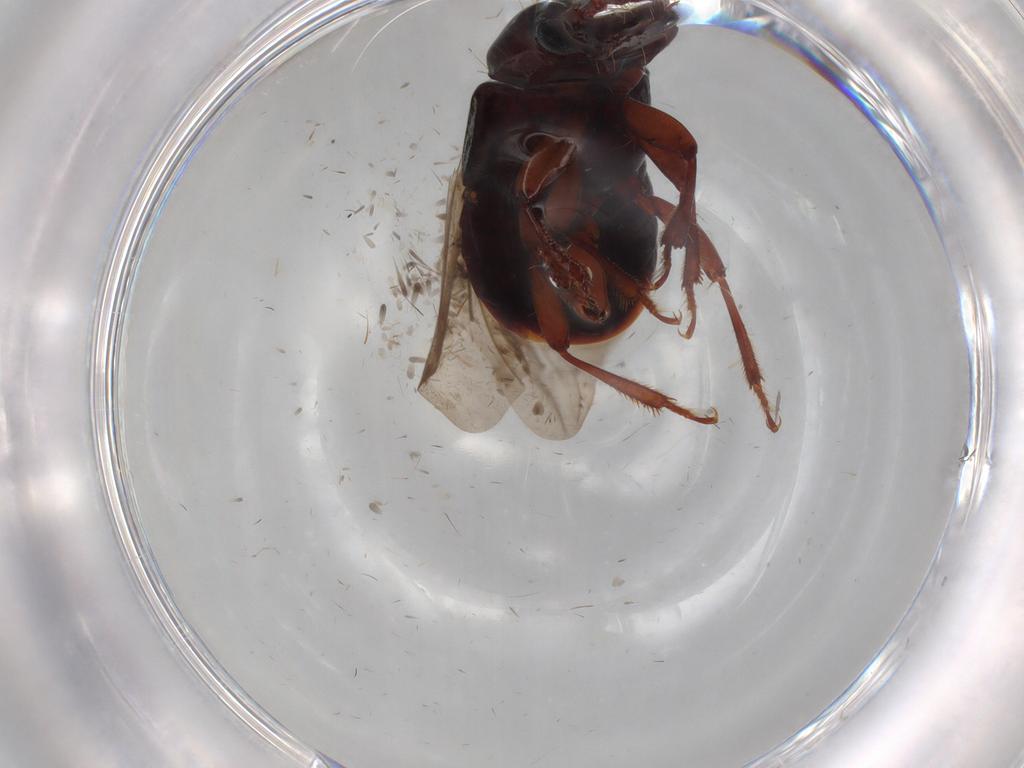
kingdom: Animalia
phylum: Arthropoda
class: Insecta
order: Coleoptera
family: Staphylinidae
